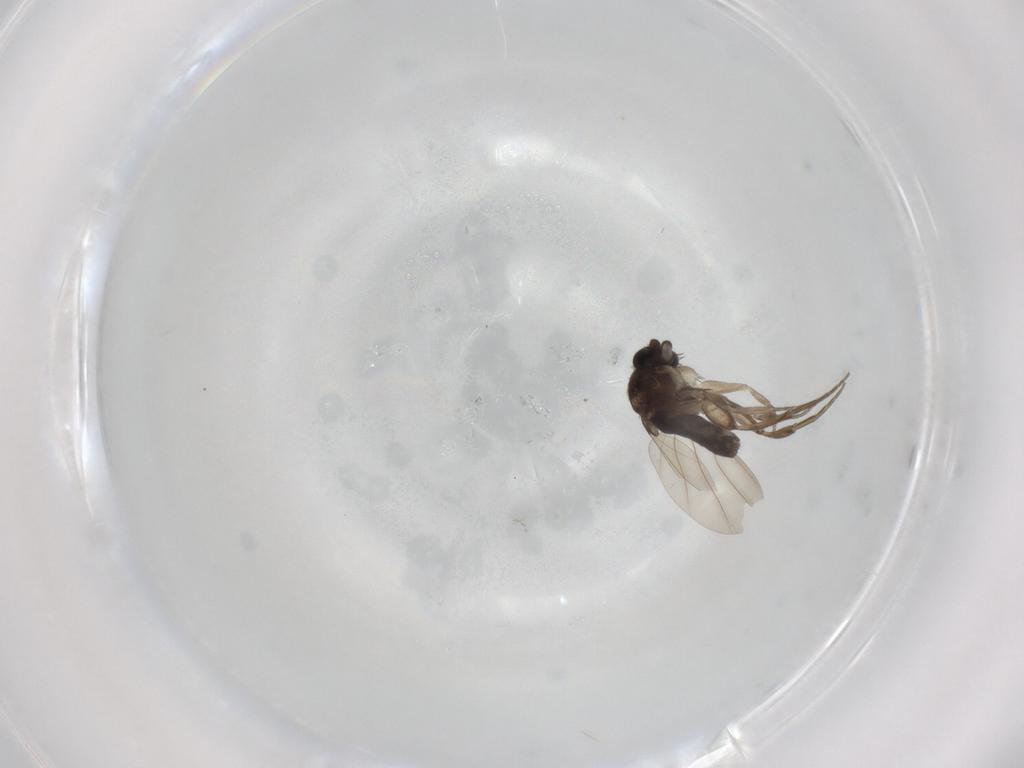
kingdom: Animalia
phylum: Arthropoda
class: Insecta
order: Diptera
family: Phoridae
